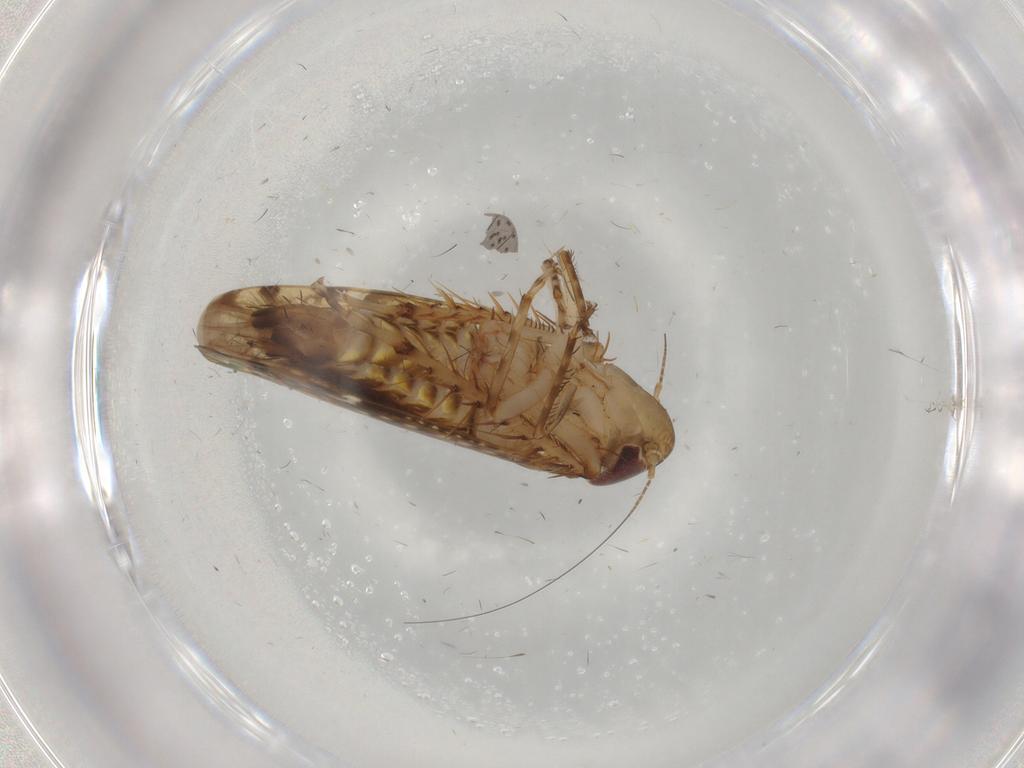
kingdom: Animalia
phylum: Arthropoda
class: Insecta
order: Hemiptera
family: Cicadellidae
